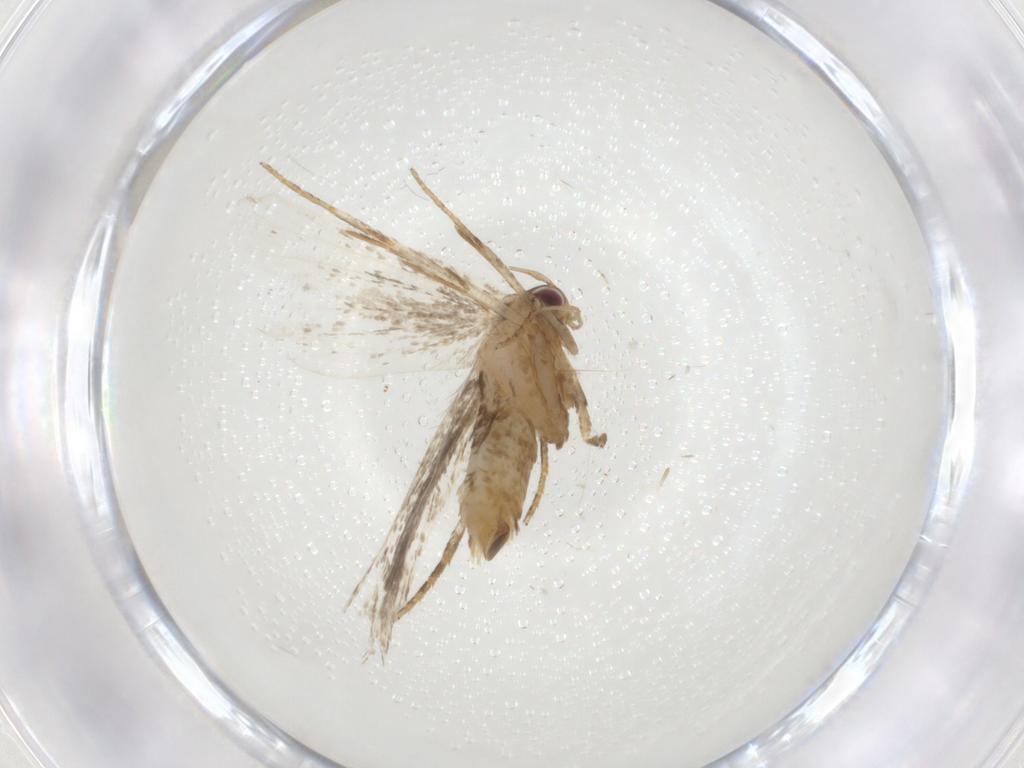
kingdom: Animalia
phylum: Arthropoda
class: Insecta
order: Lepidoptera
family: Gelechiidae
